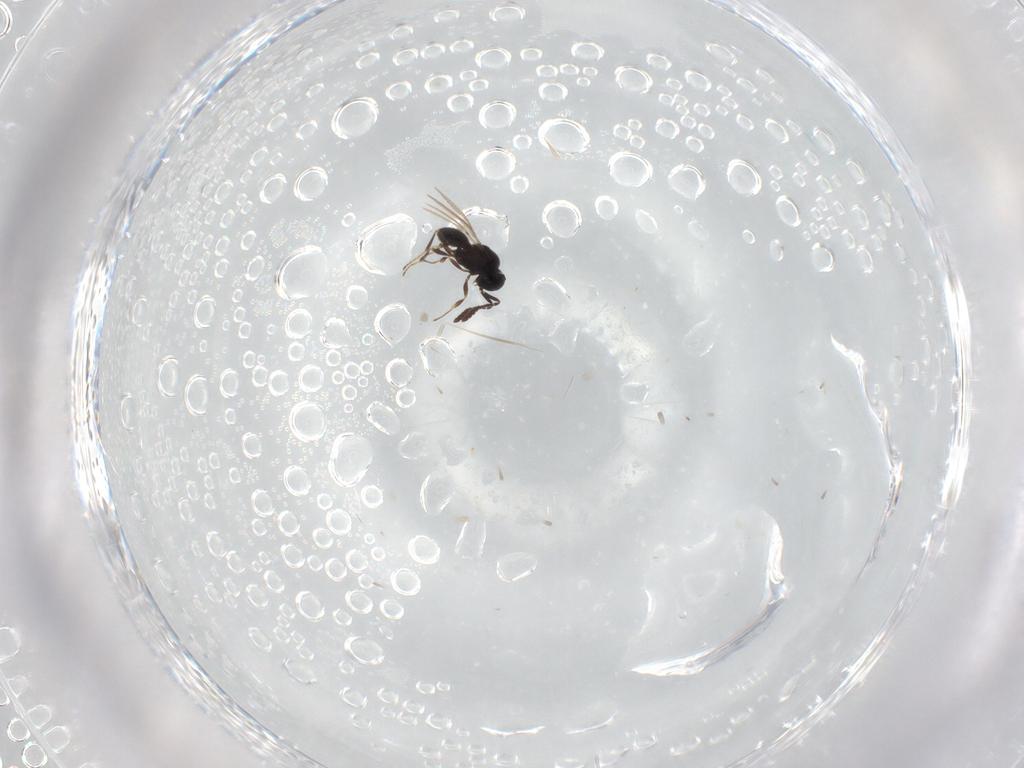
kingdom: Animalia
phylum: Arthropoda
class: Insecta
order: Hymenoptera
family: Scelionidae
